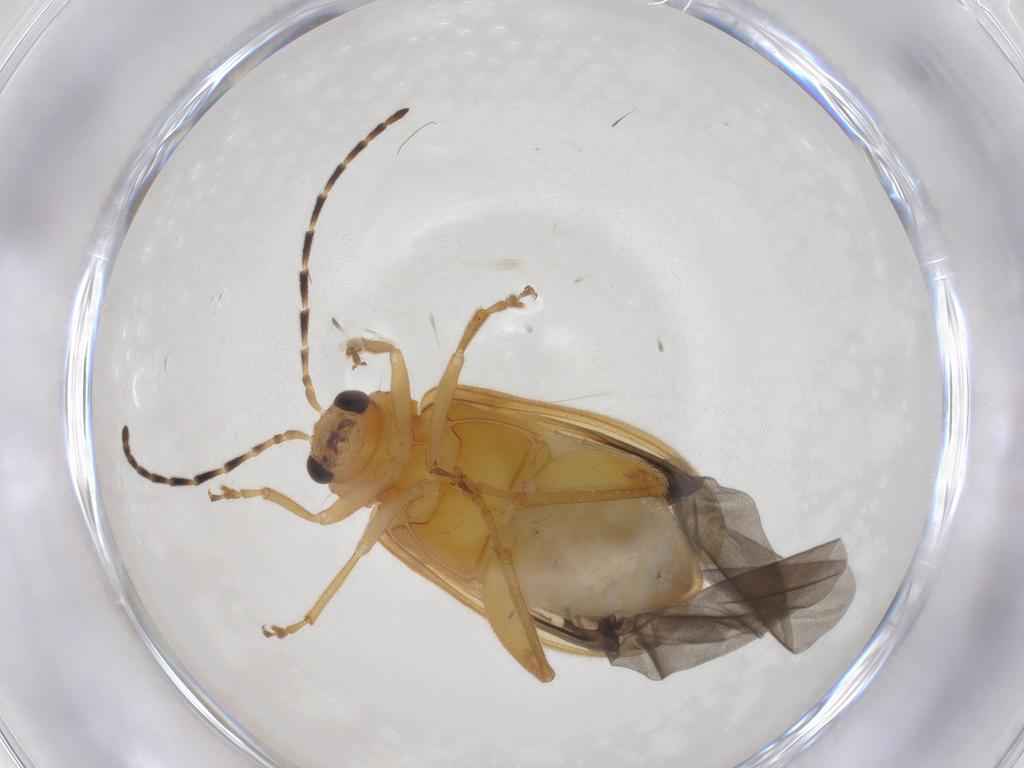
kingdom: Animalia
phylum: Arthropoda
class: Insecta
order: Coleoptera
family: Chrysomelidae
